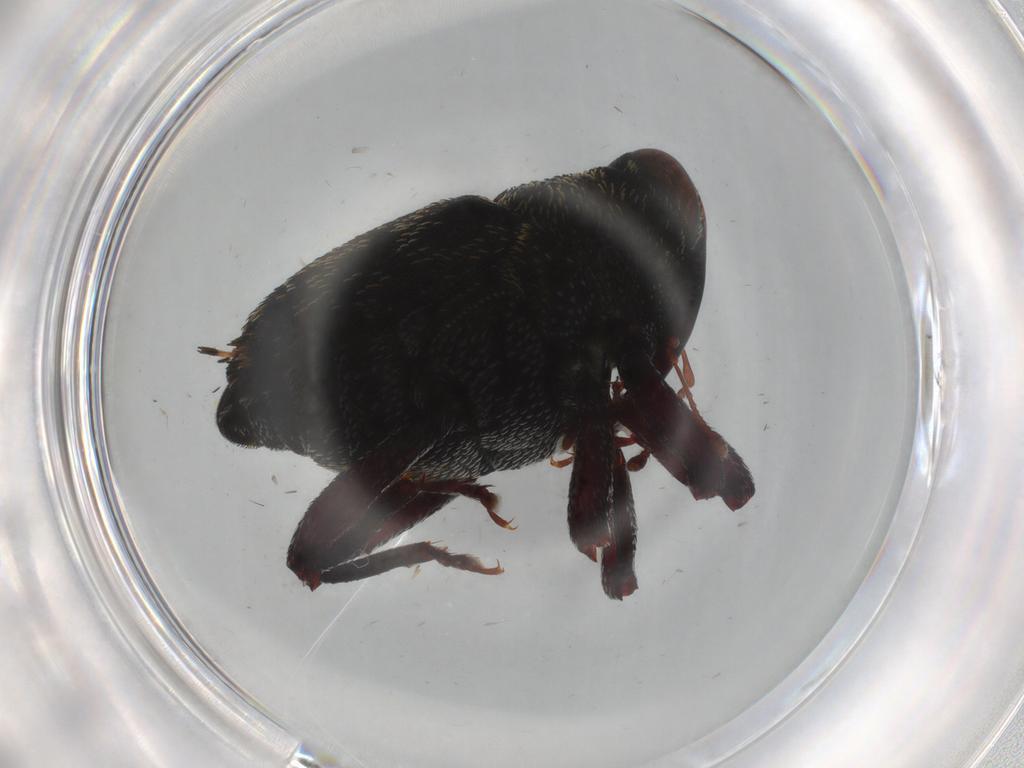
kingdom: Animalia
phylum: Arthropoda
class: Insecta
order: Coleoptera
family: Curculionidae
